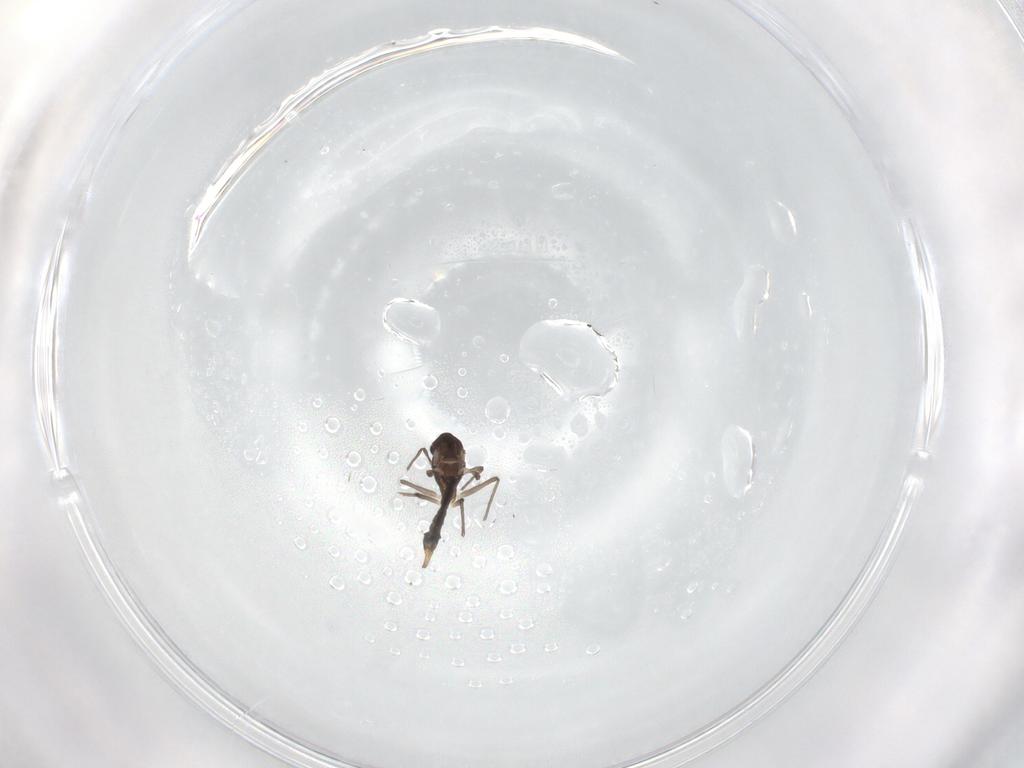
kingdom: Animalia
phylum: Arthropoda
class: Insecta
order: Diptera
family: Chironomidae
